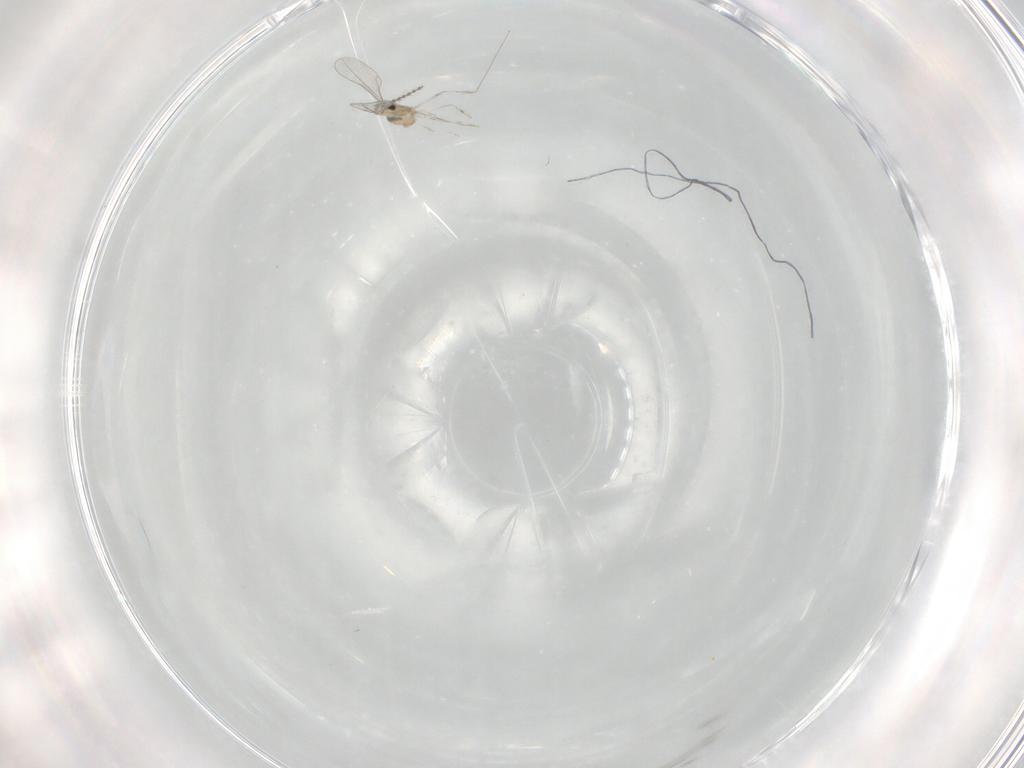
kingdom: Animalia
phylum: Arthropoda
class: Insecta
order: Diptera
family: Cecidomyiidae
